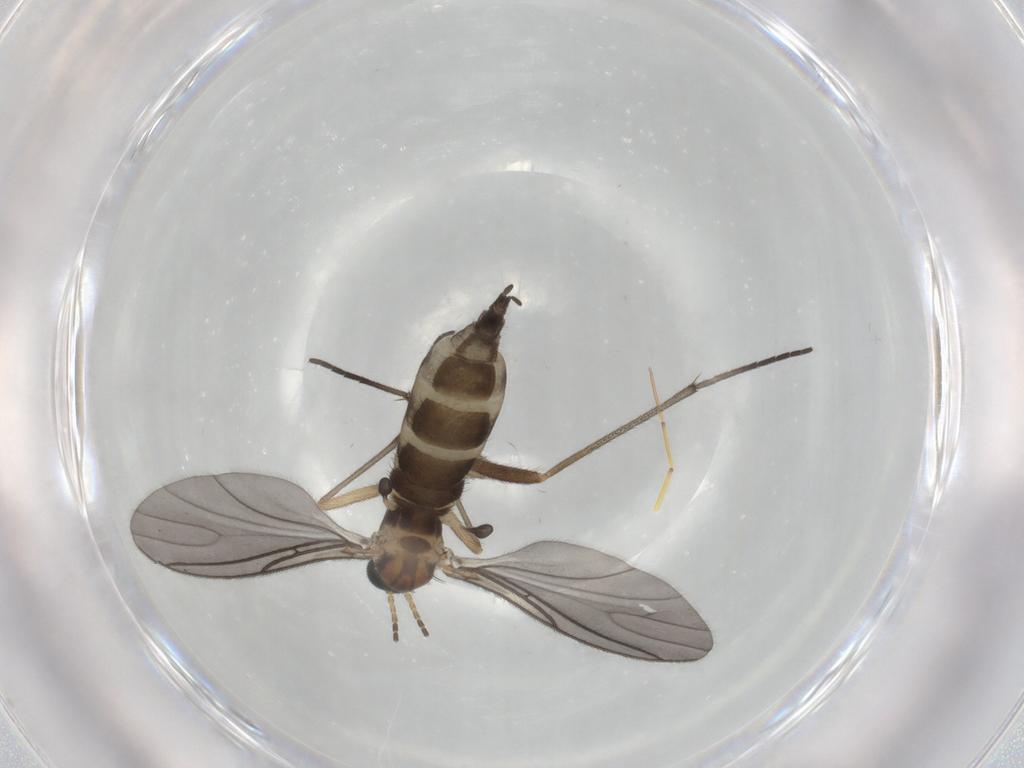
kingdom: Animalia
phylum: Arthropoda
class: Insecta
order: Diptera
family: Sciaridae
